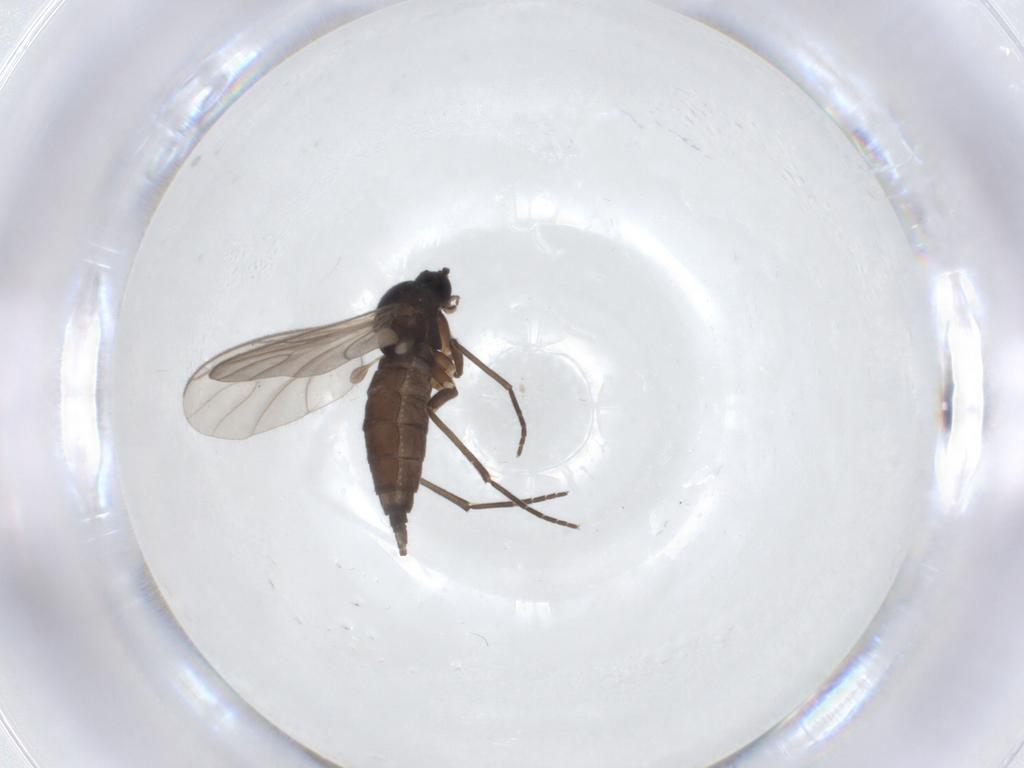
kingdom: Animalia
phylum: Arthropoda
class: Insecta
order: Diptera
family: Sciaridae
